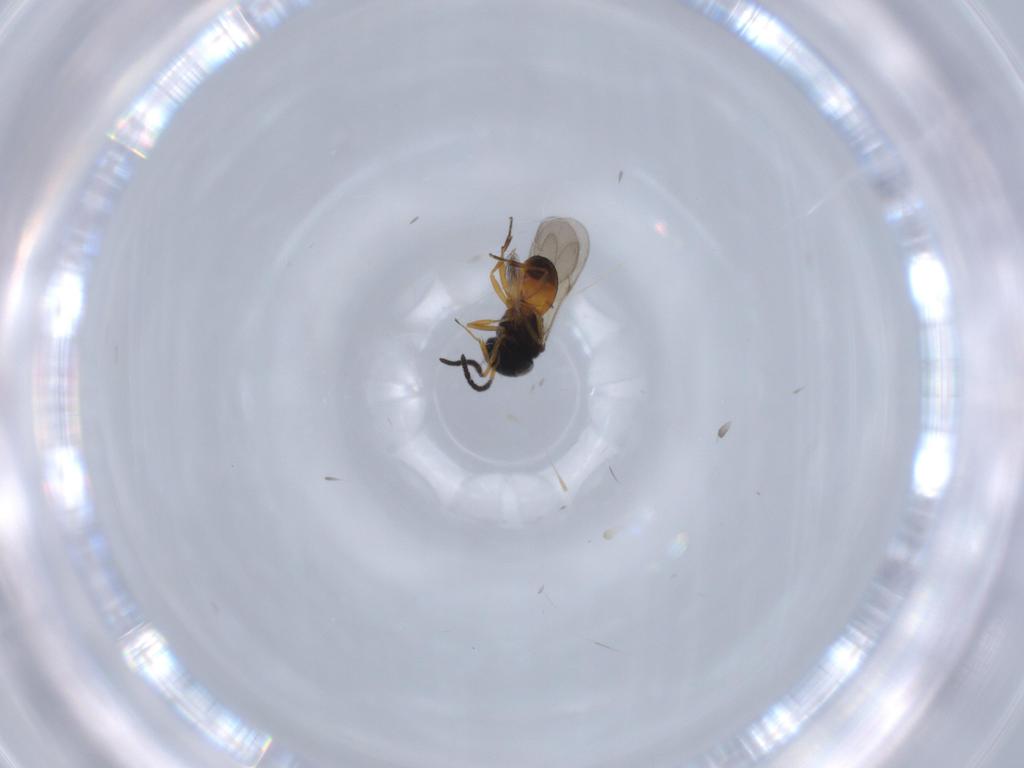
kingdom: Animalia
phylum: Arthropoda
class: Insecta
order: Hymenoptera
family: Scelionidae
